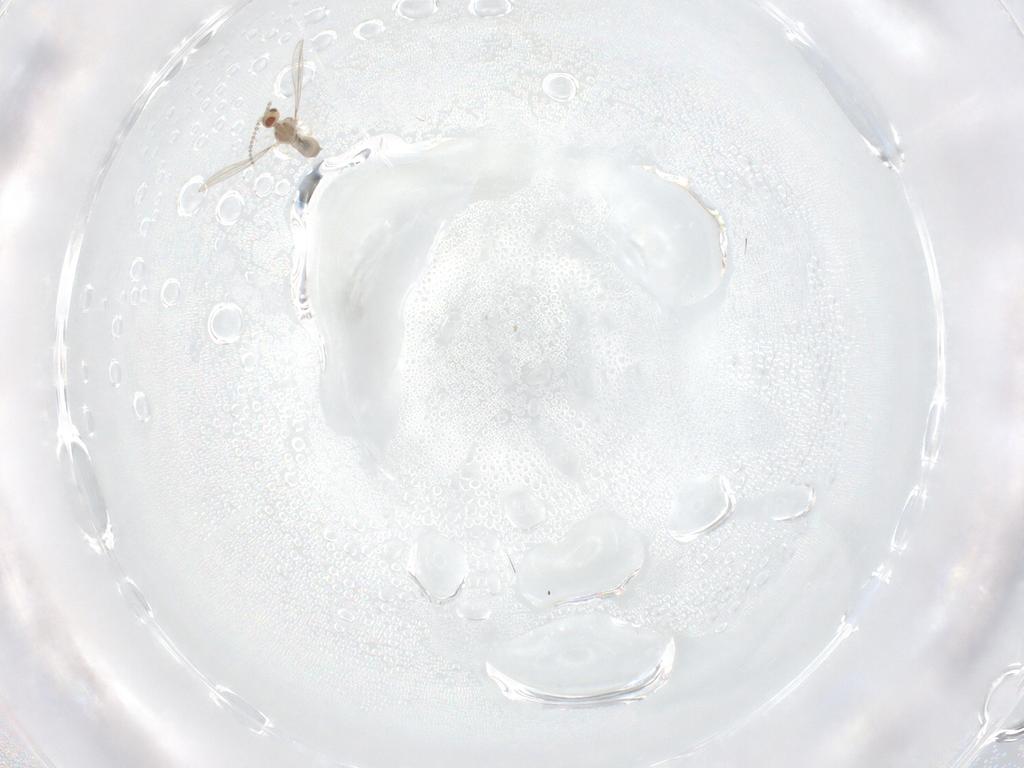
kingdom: Animalia
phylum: Arthropoda
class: Insecta
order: Diptera
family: Cecidomyiidae
